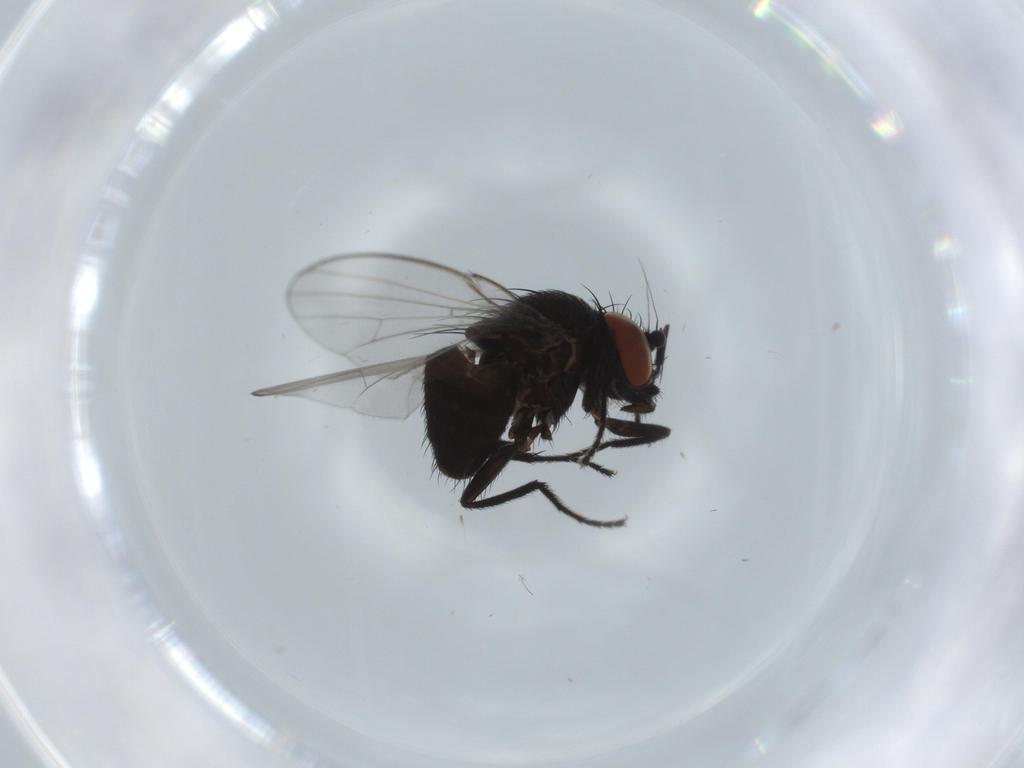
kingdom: Animalia
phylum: Arthropoda
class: Insecta
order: Diptera
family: Milichiidae
